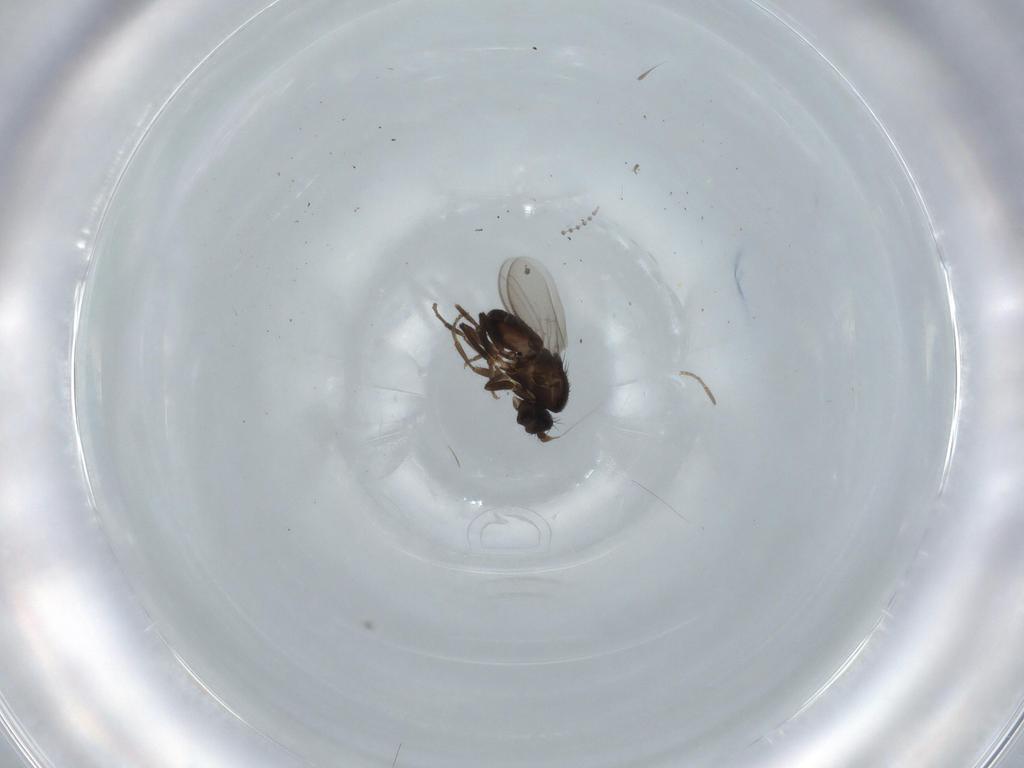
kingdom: Animalia
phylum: Arthropoda
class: Insecta
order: Diptera
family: Sphaeroceridae
